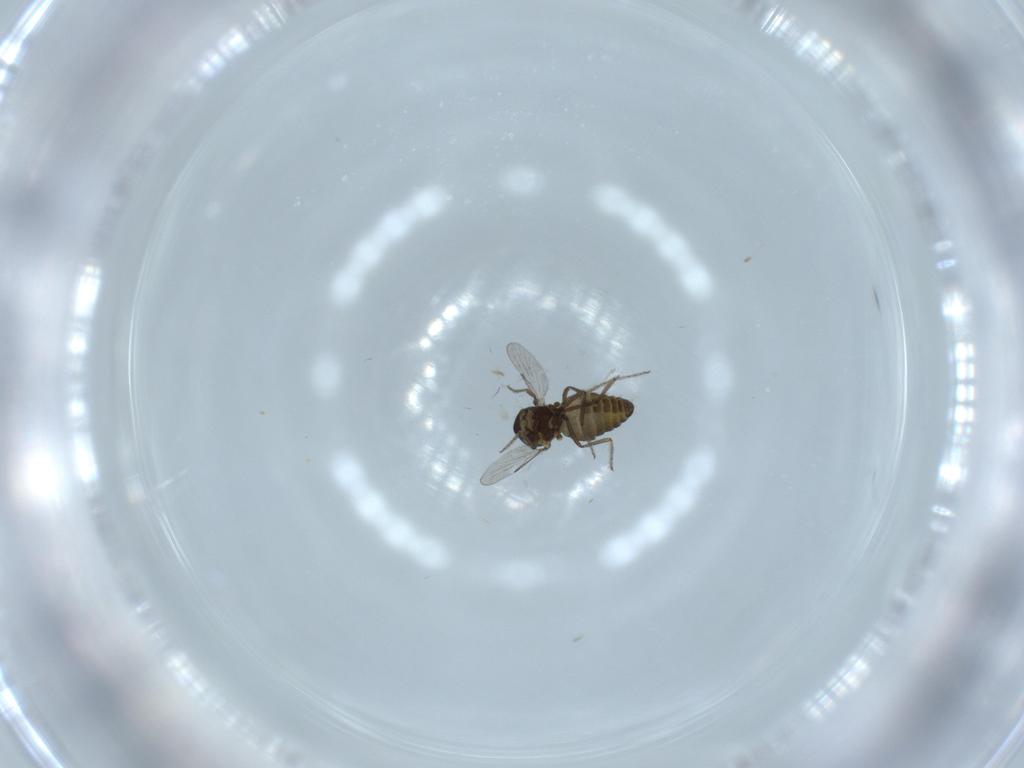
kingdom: Animalia
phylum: Arthropoda
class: Insecta
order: Diptera
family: Ceratopogonidae
